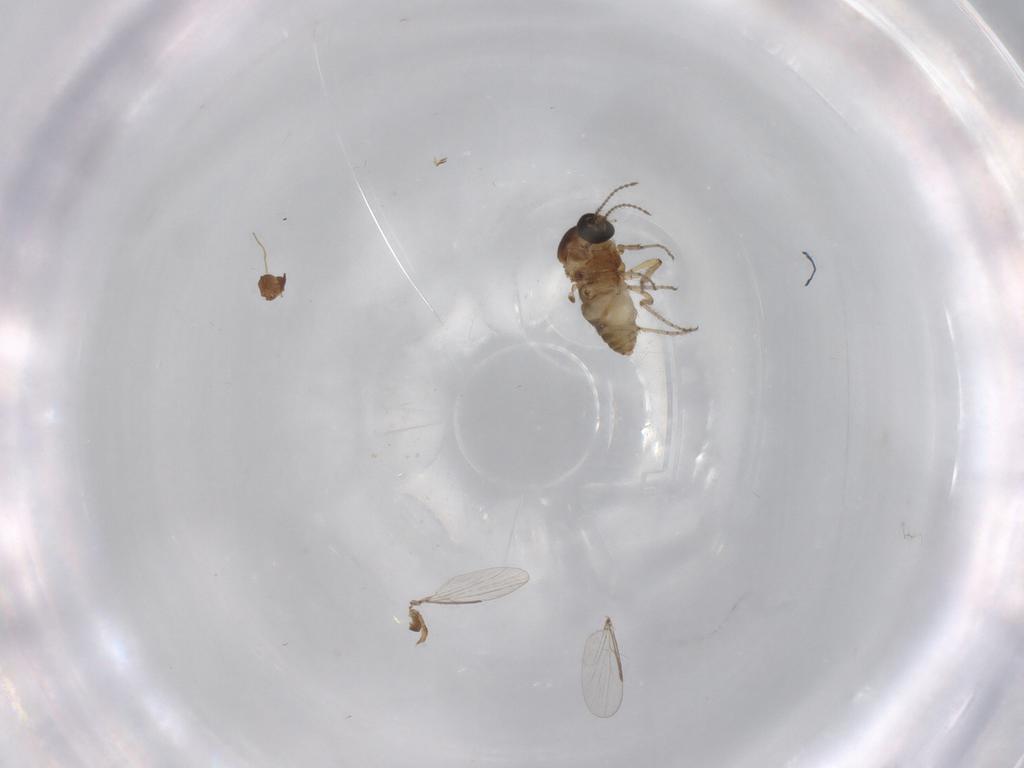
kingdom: Animalia
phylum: Arthropoda
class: Insecta
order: Diptera
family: Ceratopogonidae
